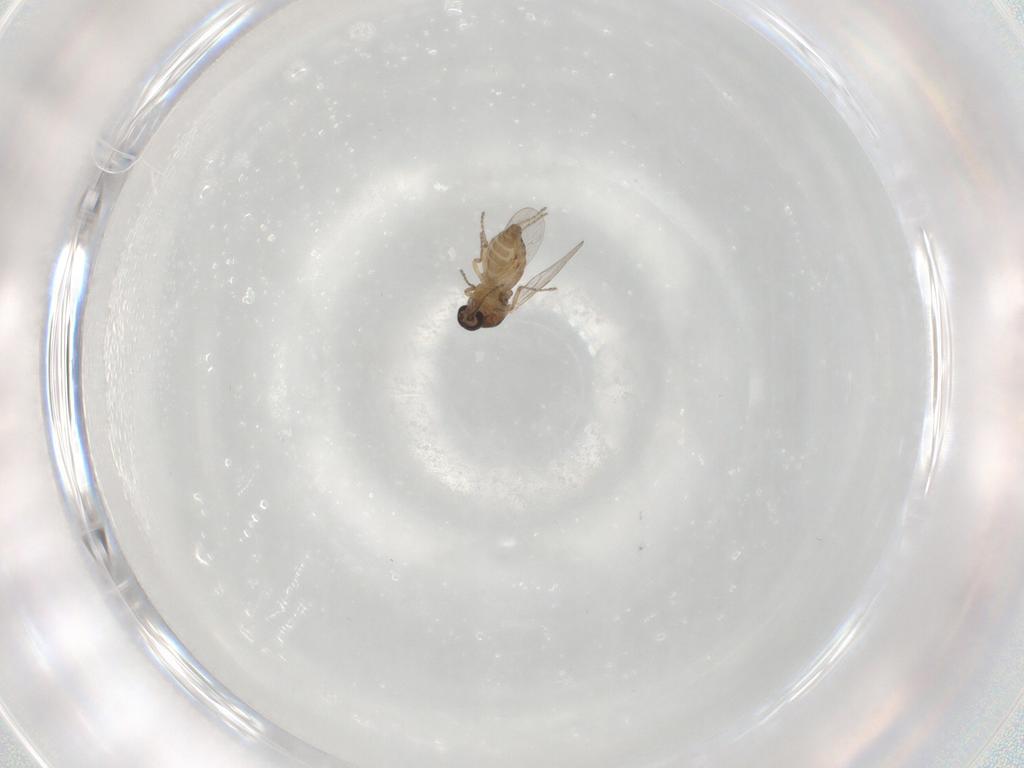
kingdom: Animalia
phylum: Arthropoda
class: Insecta
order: Diptera
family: Ceratopogonidae
